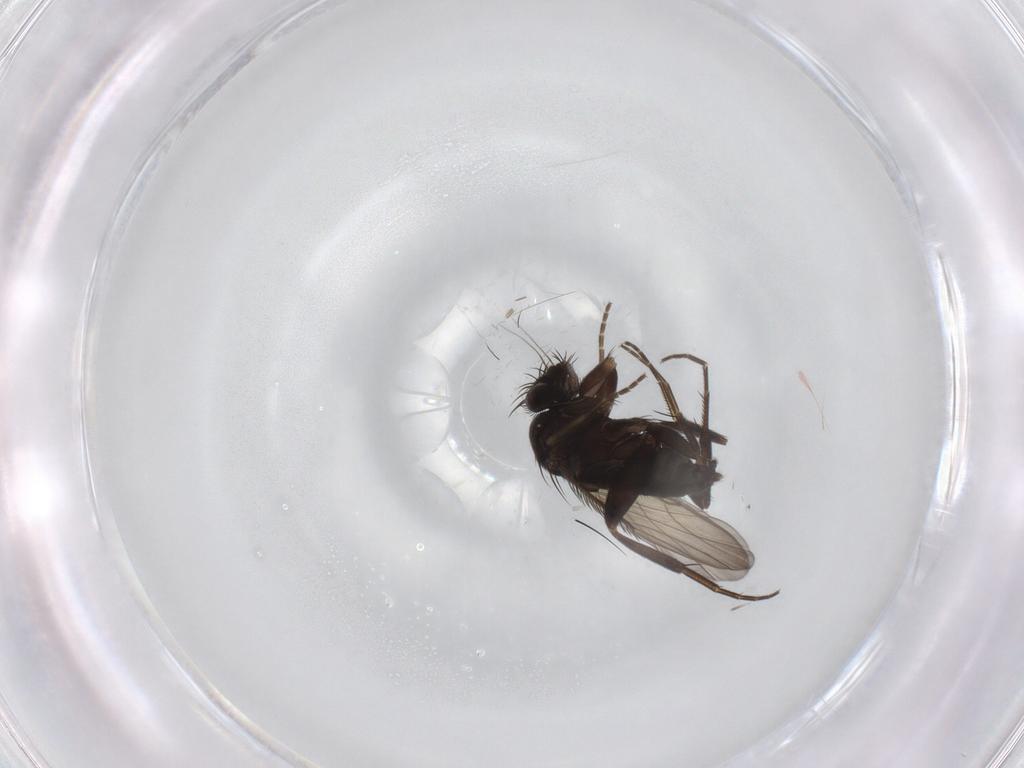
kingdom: Animalia
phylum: Arthropoda
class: Insecta
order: Diptera
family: Phoridae
